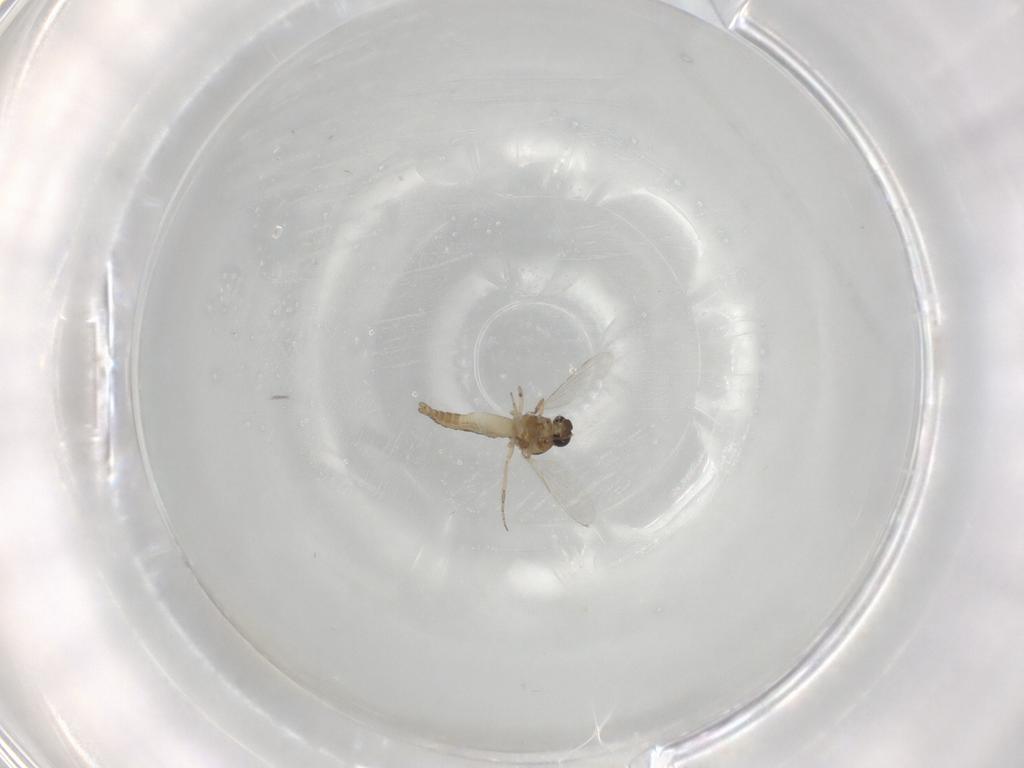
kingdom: Animalia
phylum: Arthropoda
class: Insecta
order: Diptera
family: Ceratopogonidae
